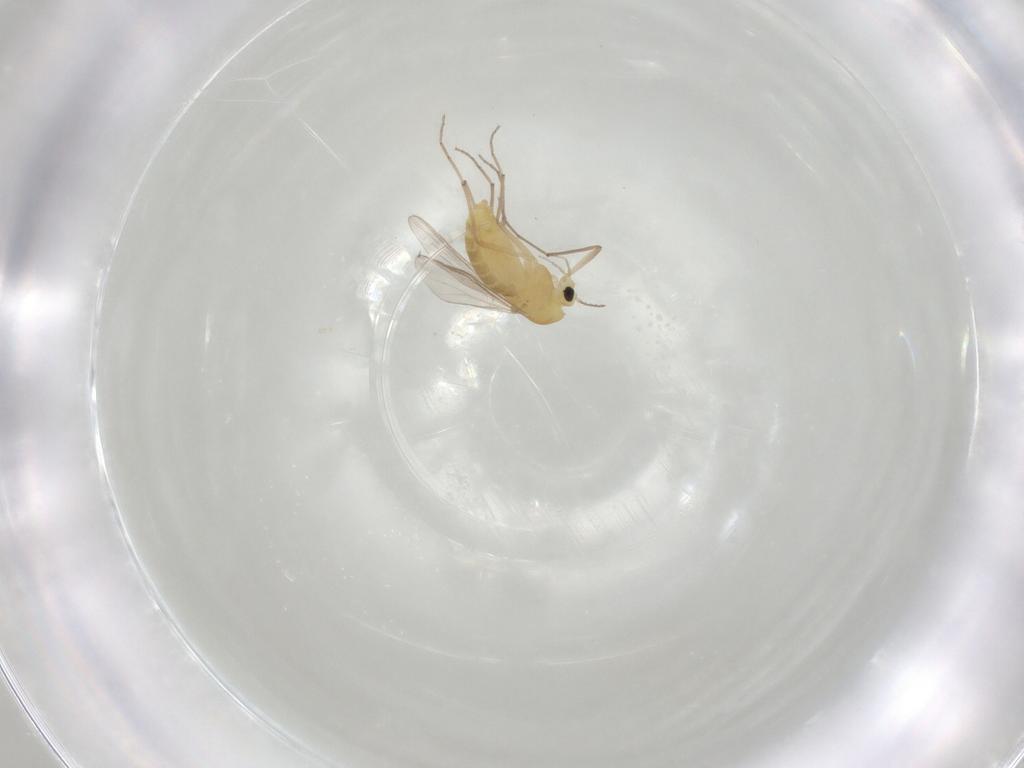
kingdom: Animalia
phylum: Arthropoda
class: Insecta
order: Diptera
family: Chironomidae
